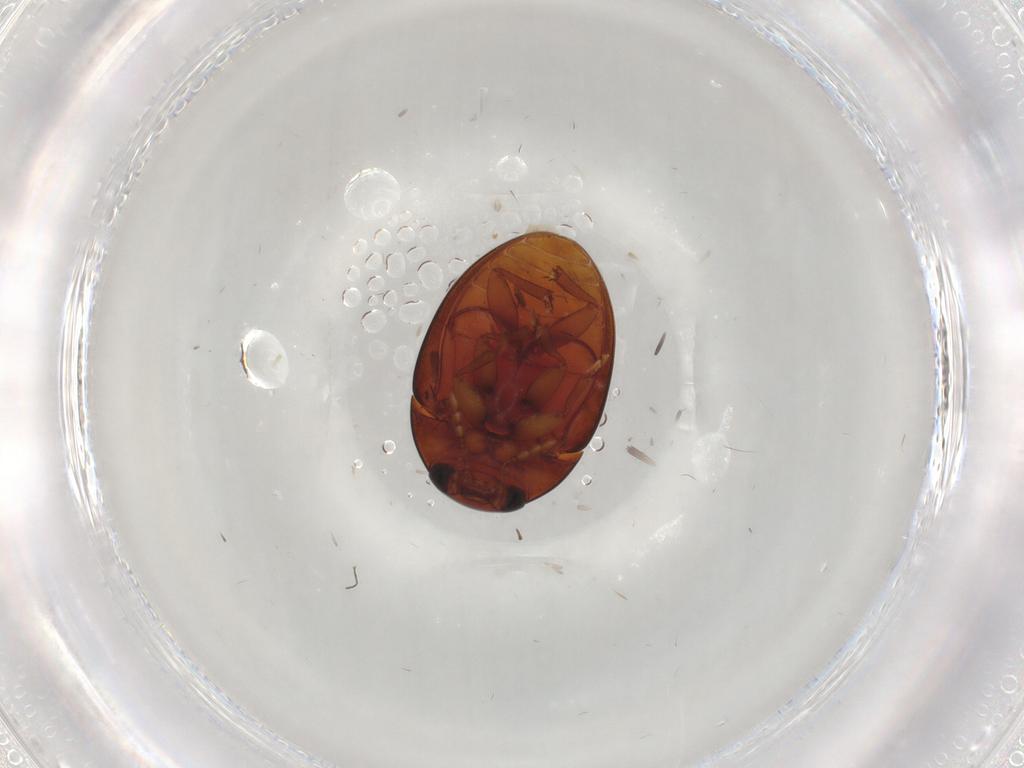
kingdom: Animalia
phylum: Arthropoda
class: Insecta
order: Coleoptera
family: Phalacridae
